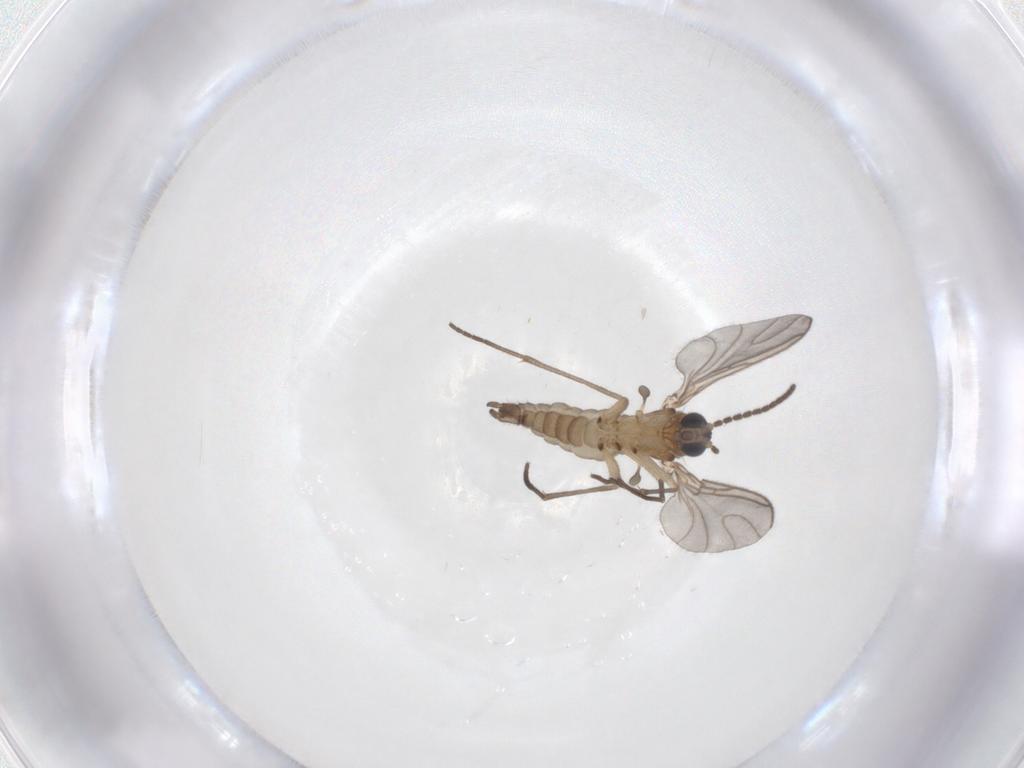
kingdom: Animalia
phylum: Arthropoda
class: Insecta
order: Diptera
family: Sciaridae
